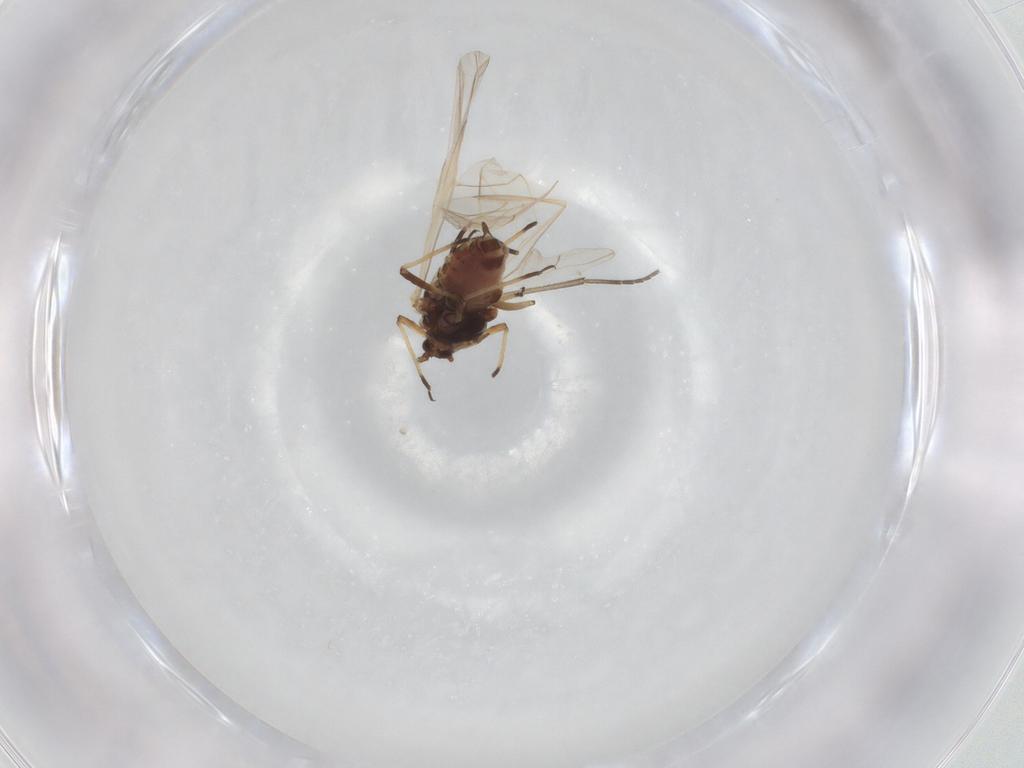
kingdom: Animalia
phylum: Arthropoda
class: Insecta
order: Hemiptera
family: Aphididae
